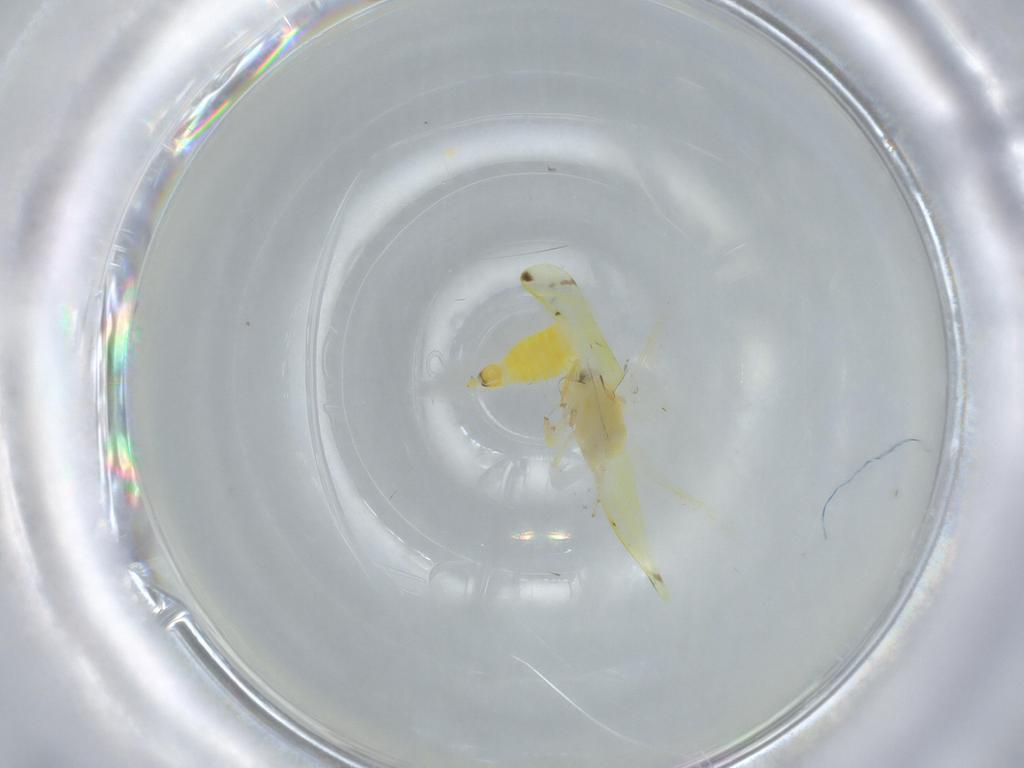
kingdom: Animalia
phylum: Arthropoda
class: Insecta
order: Hemiptera
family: Cicadellidae
